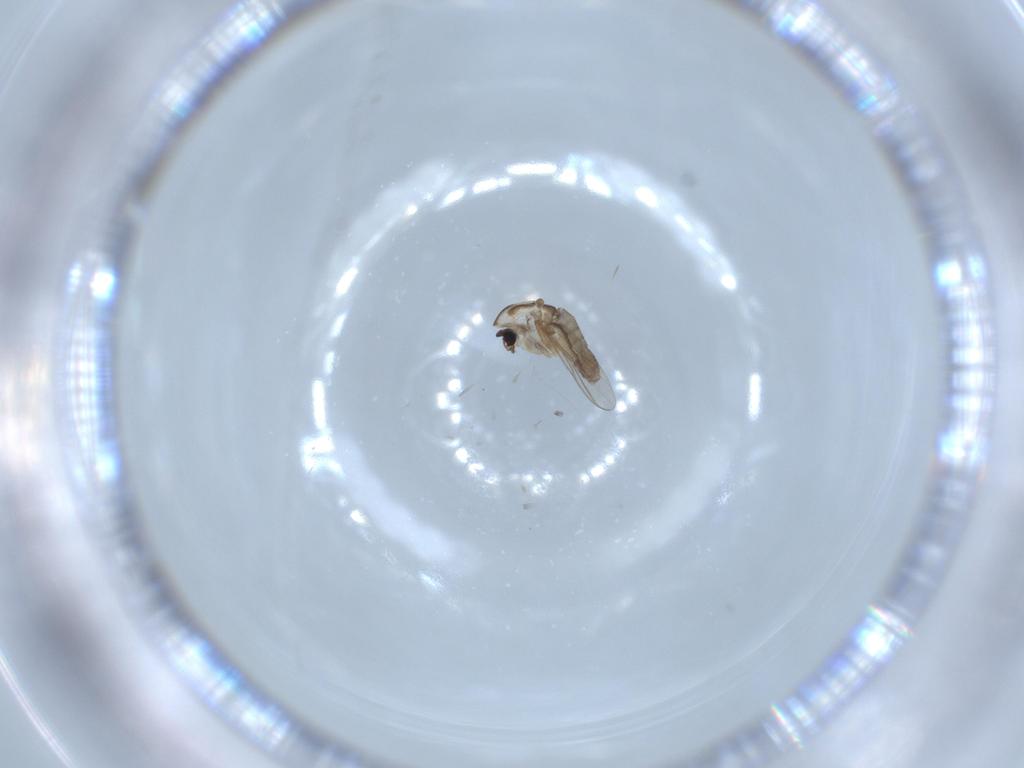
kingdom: Animalia
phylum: Arthropoda
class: Insecta
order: Diptera
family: Chironomidae
